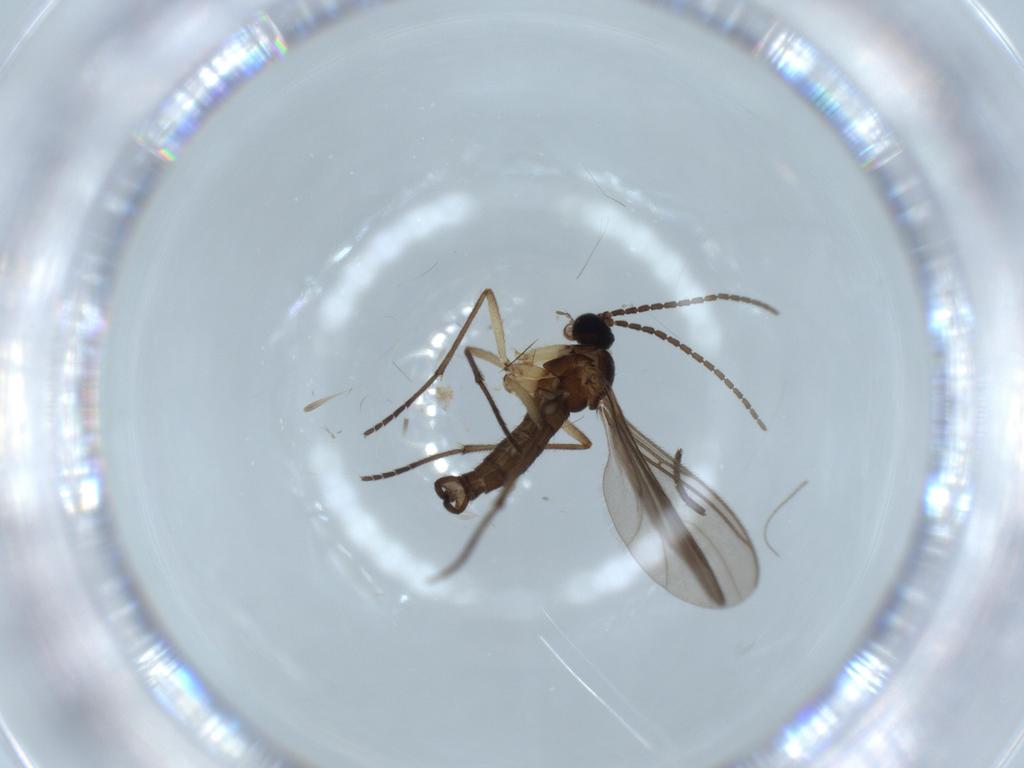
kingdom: Animalia
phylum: Arthropoda
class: Insecta
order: Diptera
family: Sciaridae
